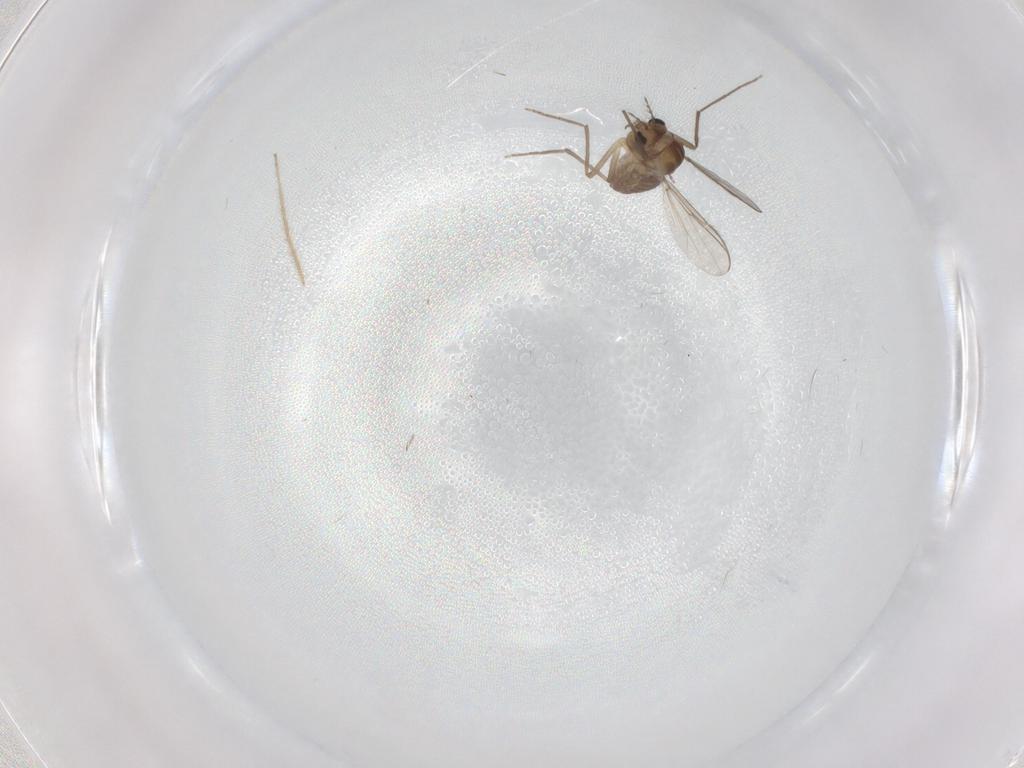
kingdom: Animalia
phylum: Arthropoda
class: Insecta
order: Diptera
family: Chironomidae
